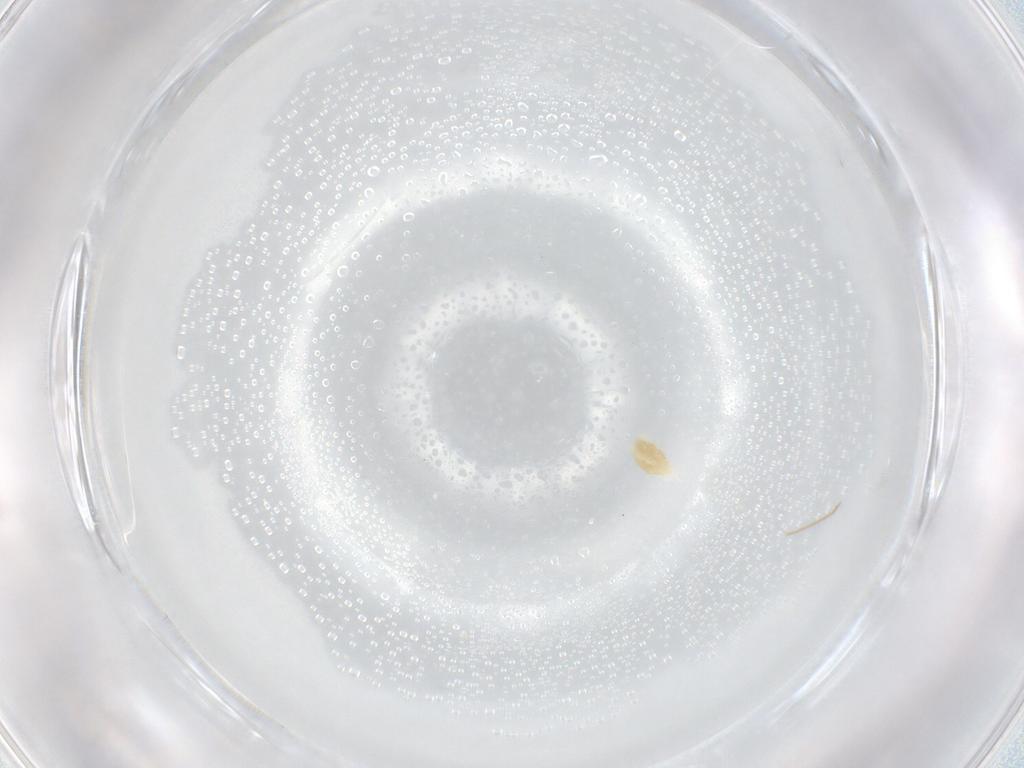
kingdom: Animalia
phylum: Arthropoda
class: Arachnida
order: Trombidiformes
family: Eupodidae
